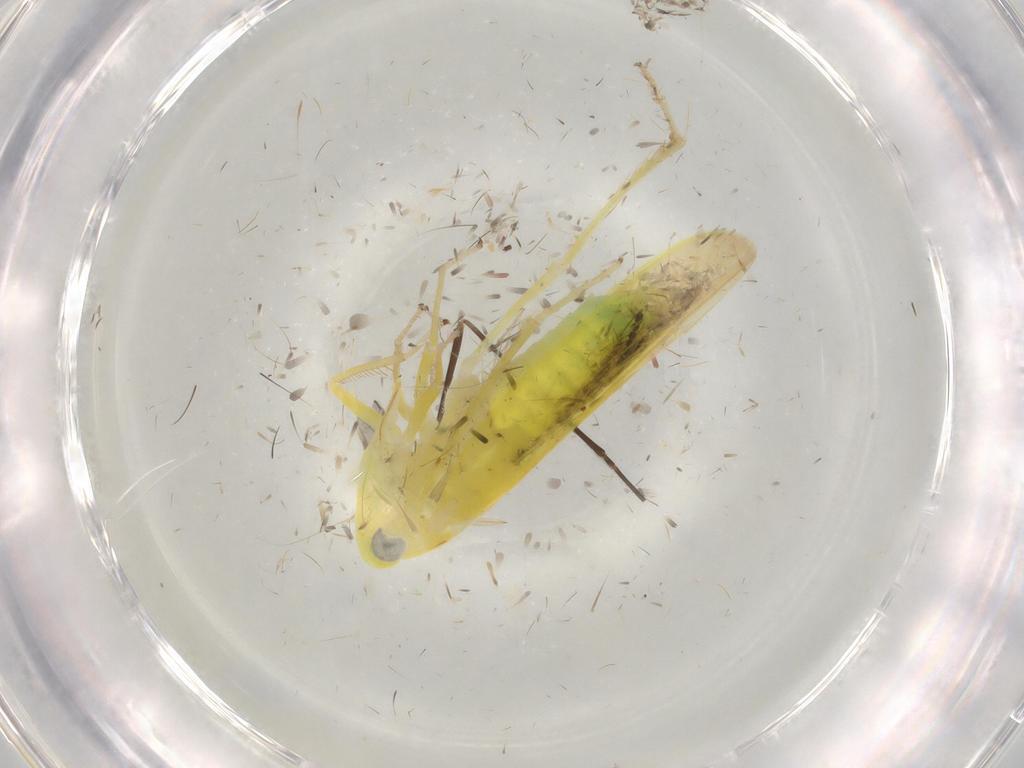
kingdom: Animalia
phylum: Arthropoda
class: Insecta
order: Hemiptera
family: Cicadellidae
